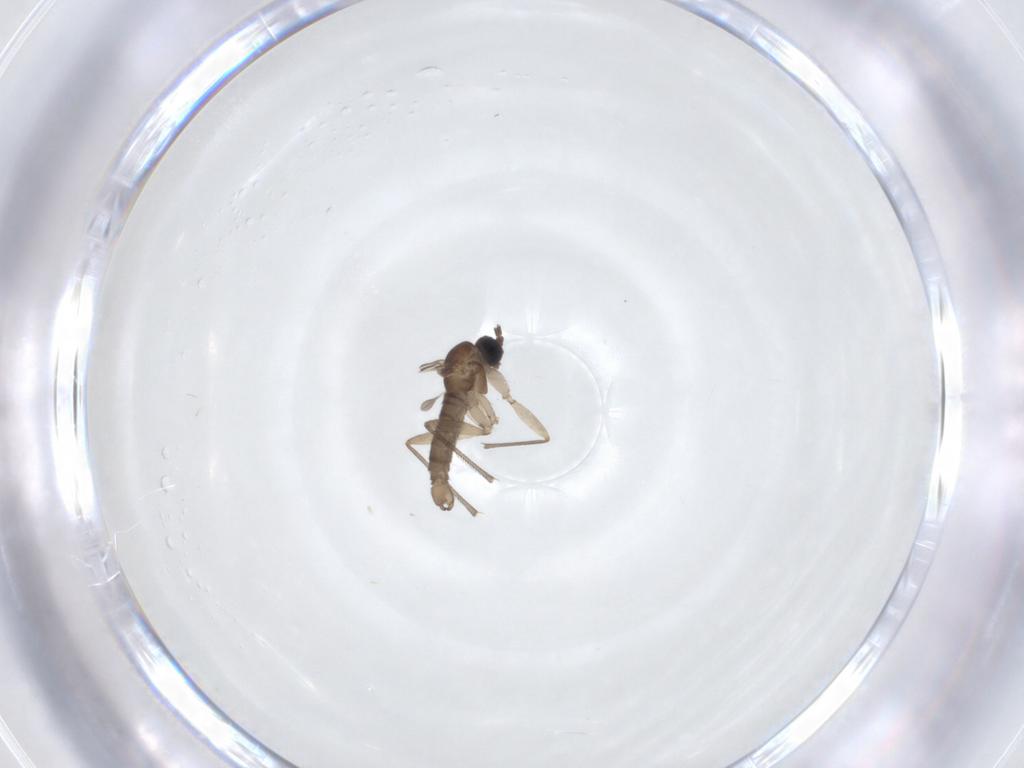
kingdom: Animalia
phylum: Arthropoda
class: Insecta
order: Diptera
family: Sciaridae
